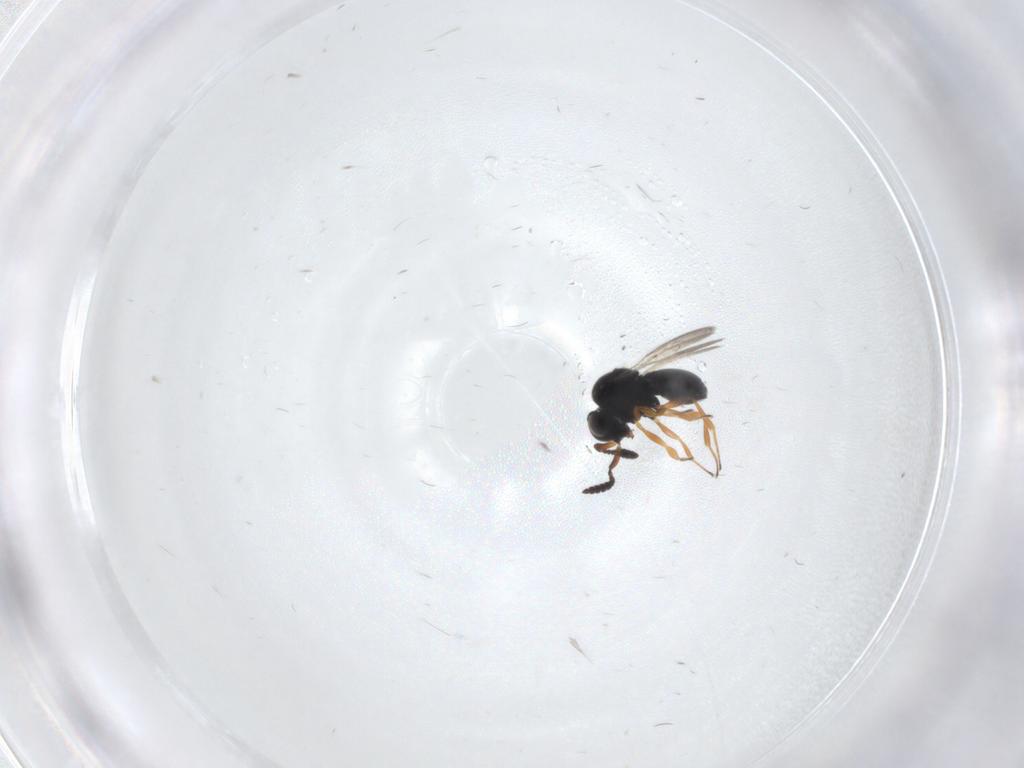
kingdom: Animalia
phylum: Arthropoda
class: Insecta
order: Hymenoptera
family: Scelionidae
